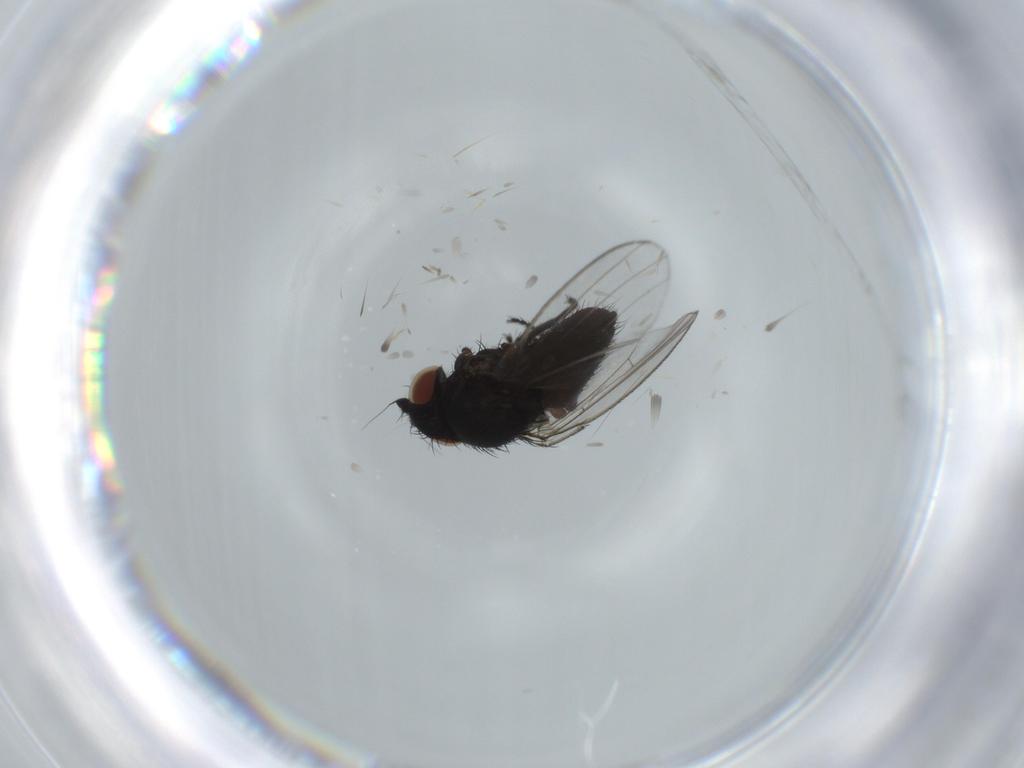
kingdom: Animalia
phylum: Arthropoda
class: Insecta
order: Diptera
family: Milichiidae
